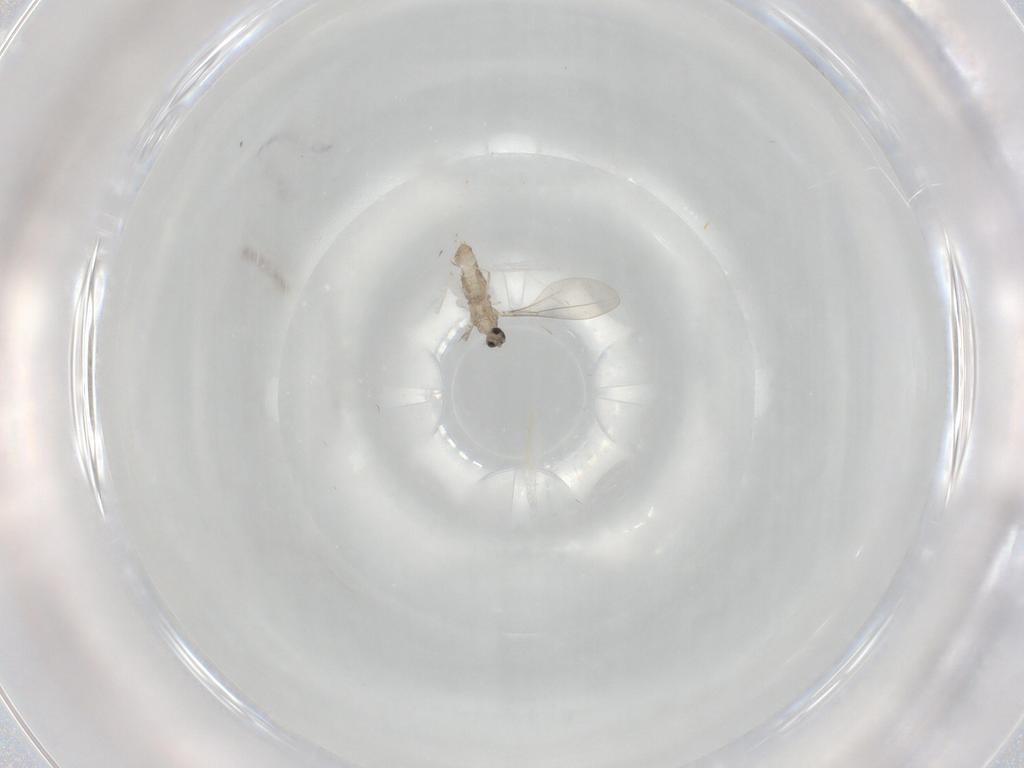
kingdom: Animalia
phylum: Arthropoda
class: Insecta
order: Diptera
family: Cecidomyiidae
